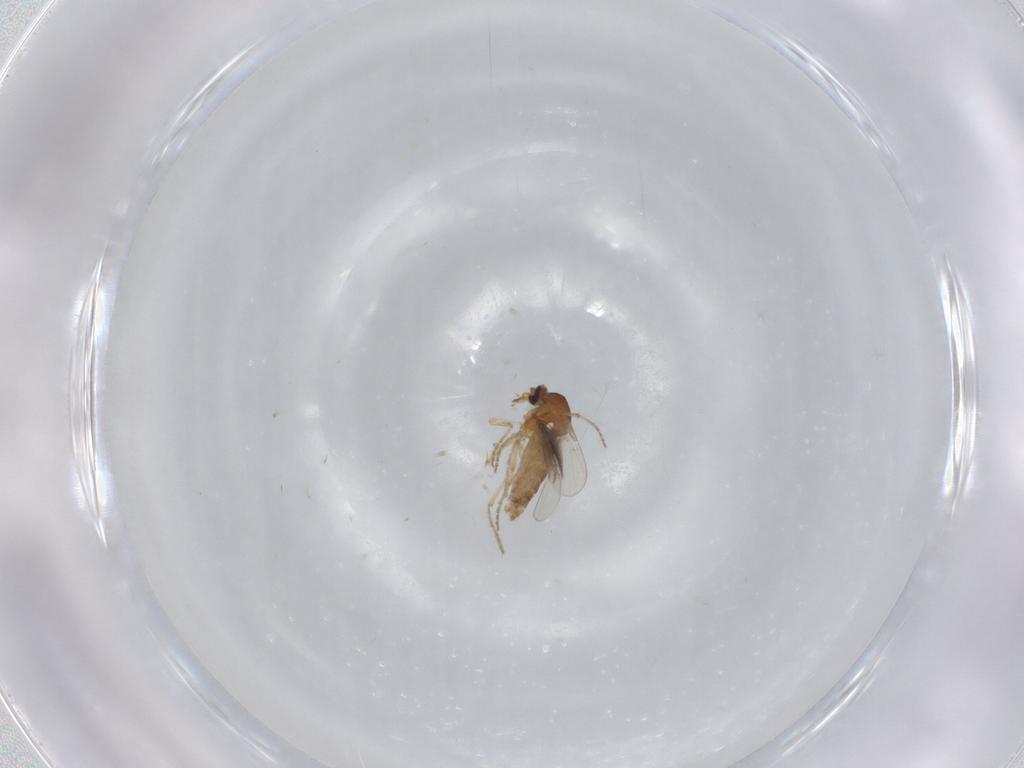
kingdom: Animalia
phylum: Arthropoda
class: Insecta
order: Diptera
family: Ceratopogonidae
